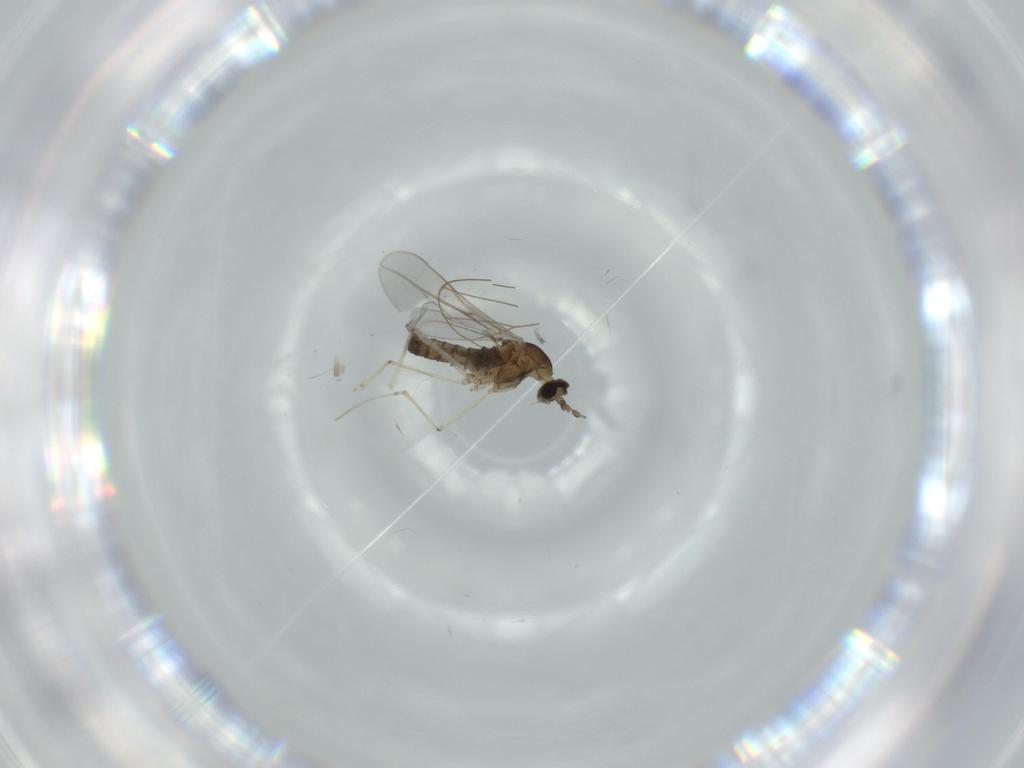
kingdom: Animalia
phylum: Arthropoda
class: Insecta
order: Diptera
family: Cecidomyiidae
